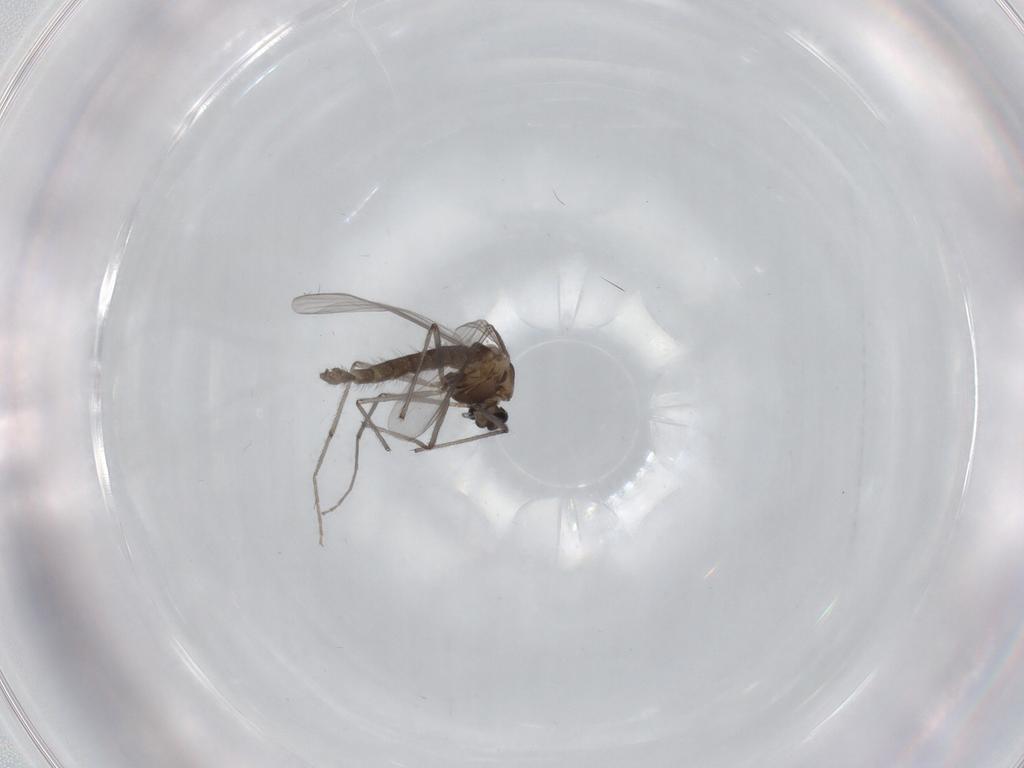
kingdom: Animalia
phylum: Arthropoda
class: Insecta
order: Diptera
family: Chironomidae
